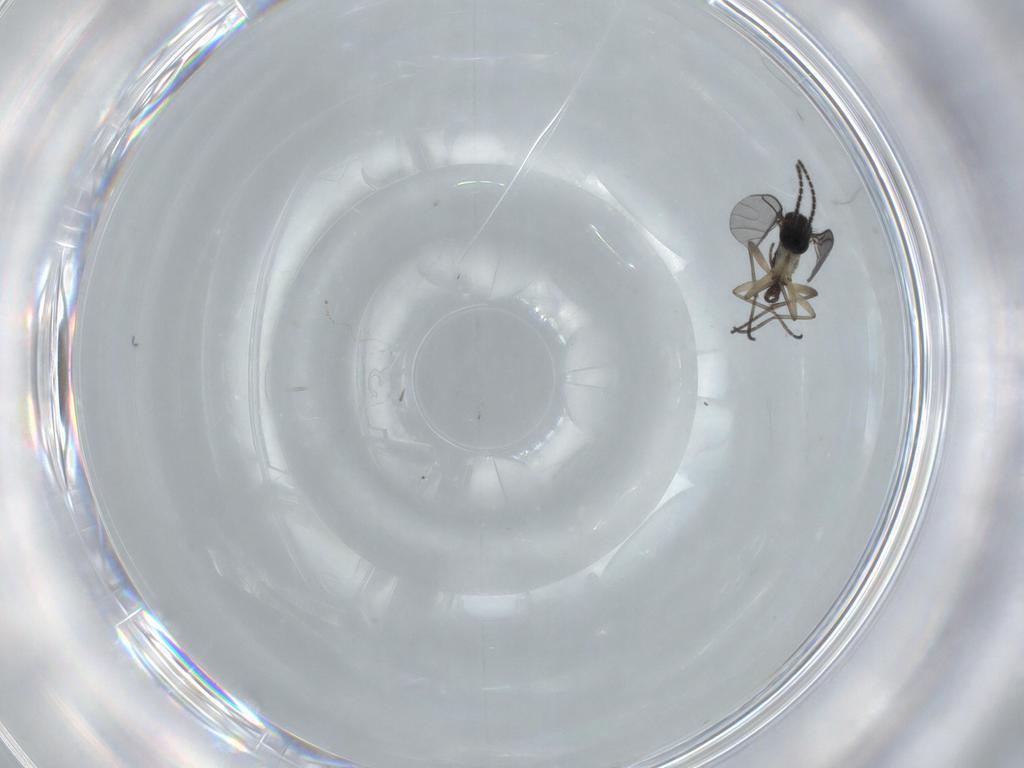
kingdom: Animalia
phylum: Arthropoda
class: Insecta
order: Diptera
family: Sciaridae
